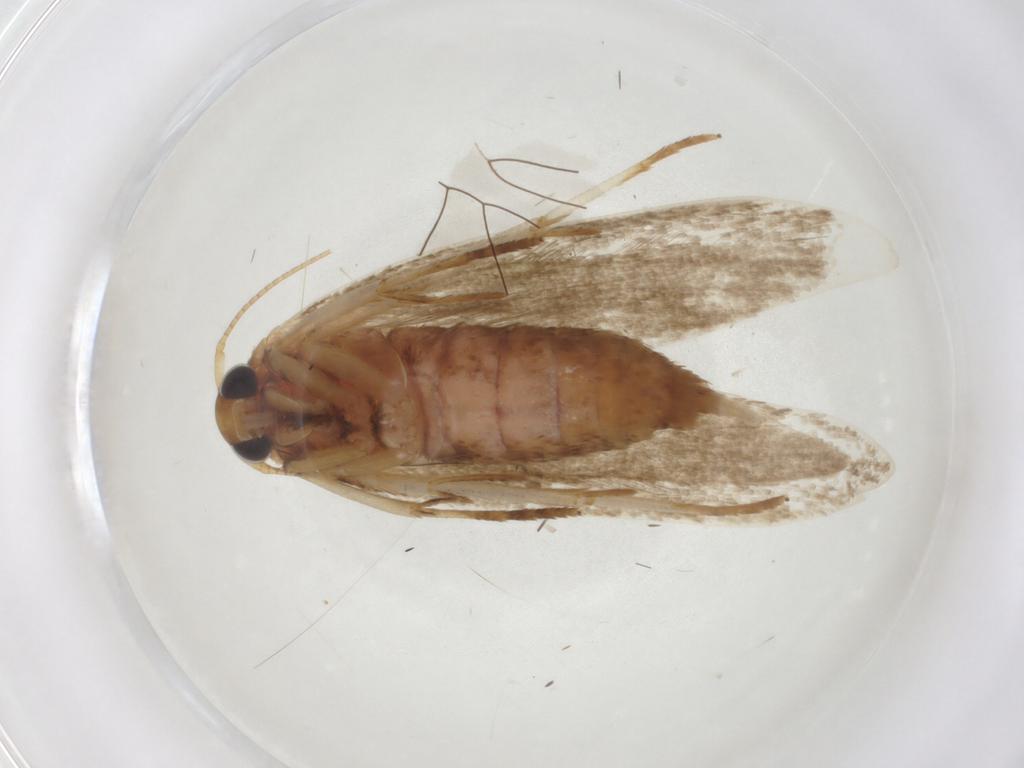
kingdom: Animalia
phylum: Arthropoda
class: Insecta
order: Lepidoptera
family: Blastobasidae
